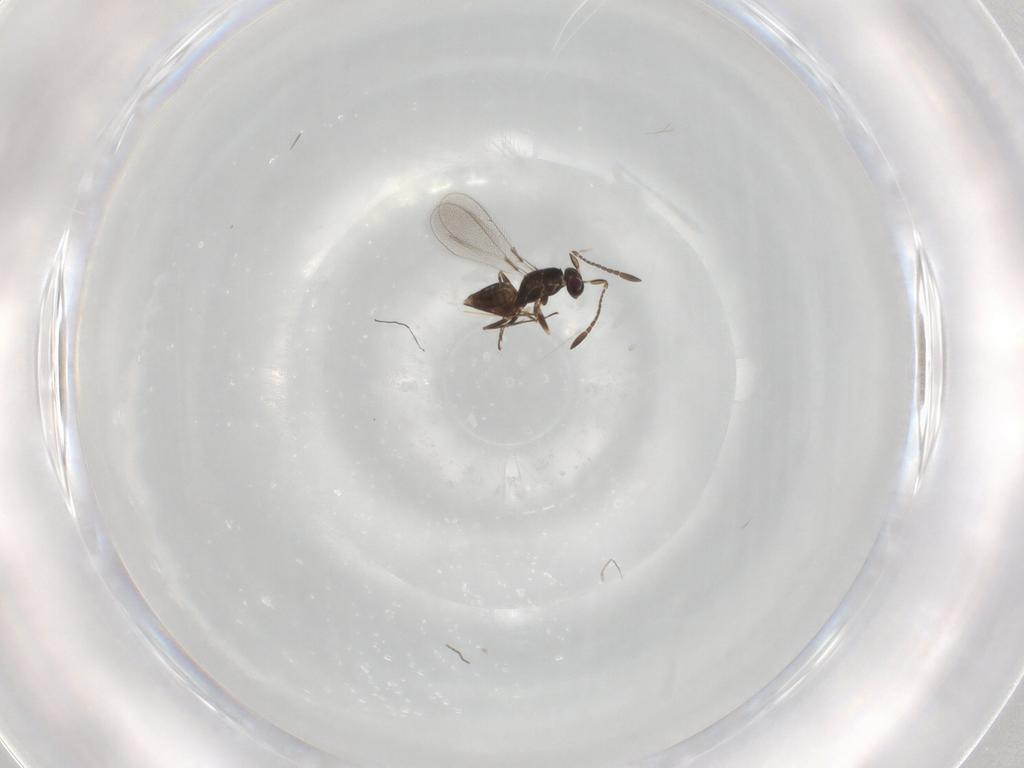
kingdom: Animalia
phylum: Arthropoda
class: Insecta
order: Hymenoptera
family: Mymaridae
